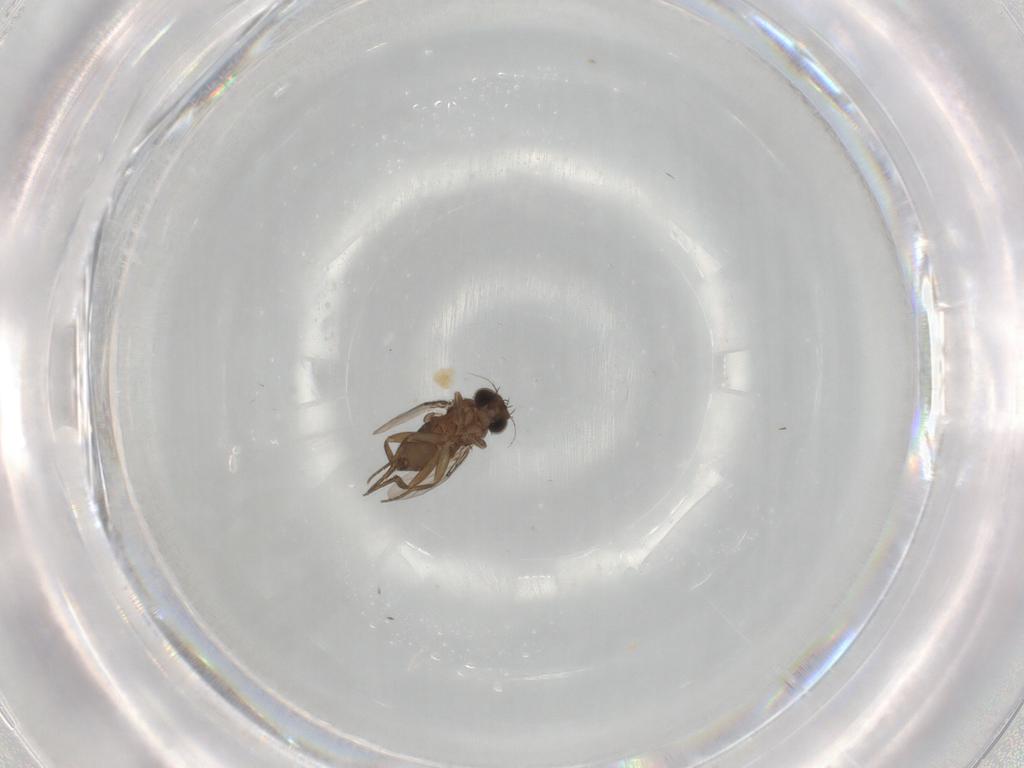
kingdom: Animalia
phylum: Arthropoda
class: Insecta
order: Diptera
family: Phoridae
